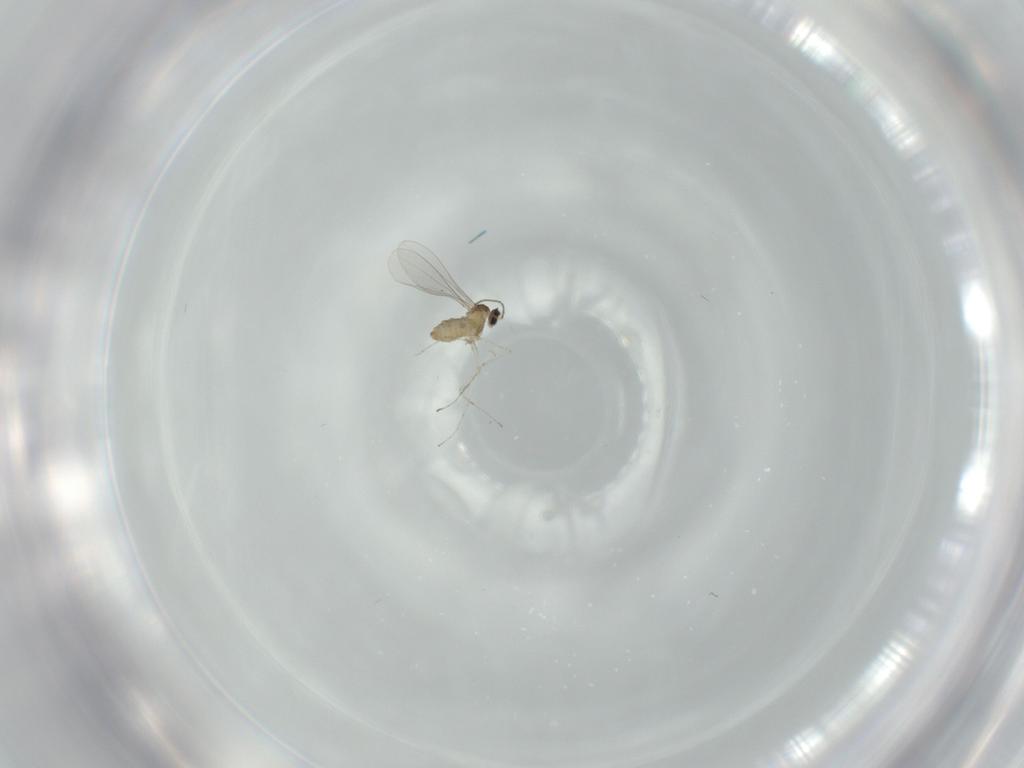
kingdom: Animalia
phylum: Arthropoda
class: Insecta
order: Diptera
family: Cecidomyiidae
